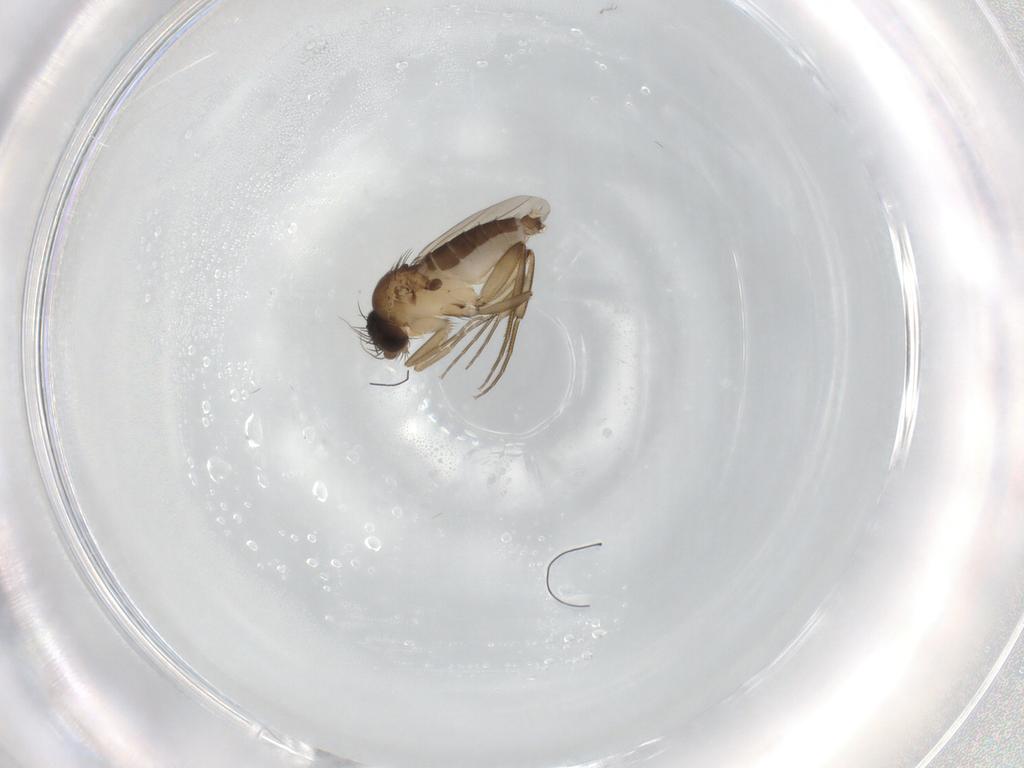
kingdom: Animalia
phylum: Arthropoda
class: Insecta
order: Diptera
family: Phoridae
